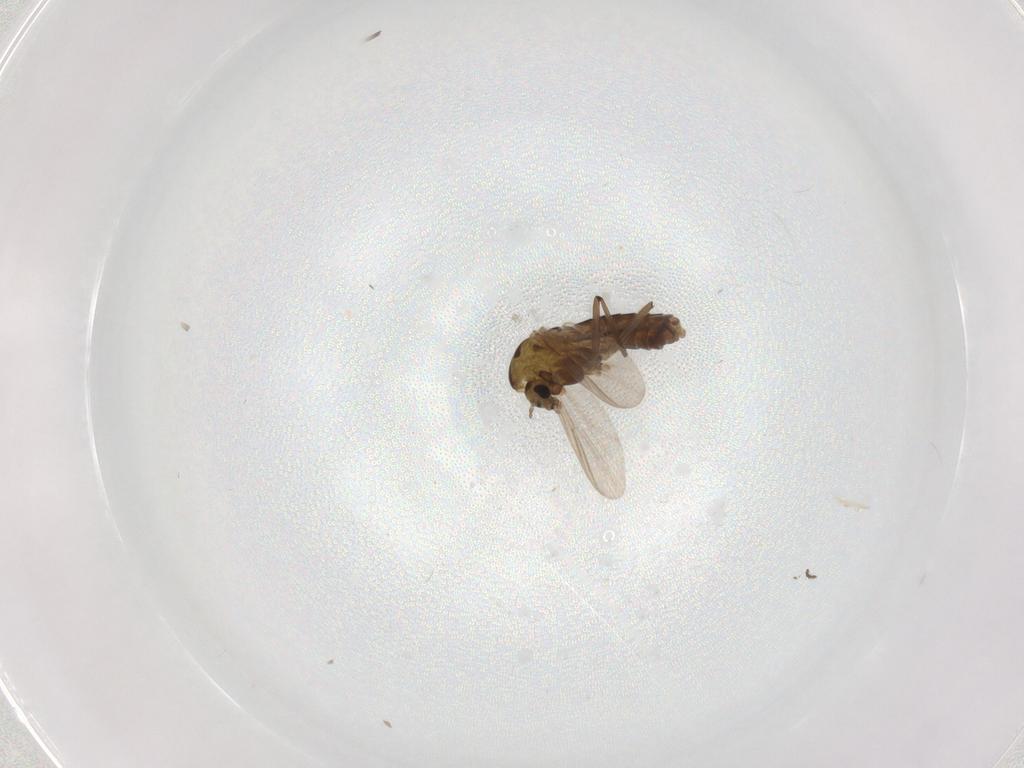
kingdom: Animalia
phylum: Arthropoda
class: Insecta
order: Diptera
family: Chironomidae
